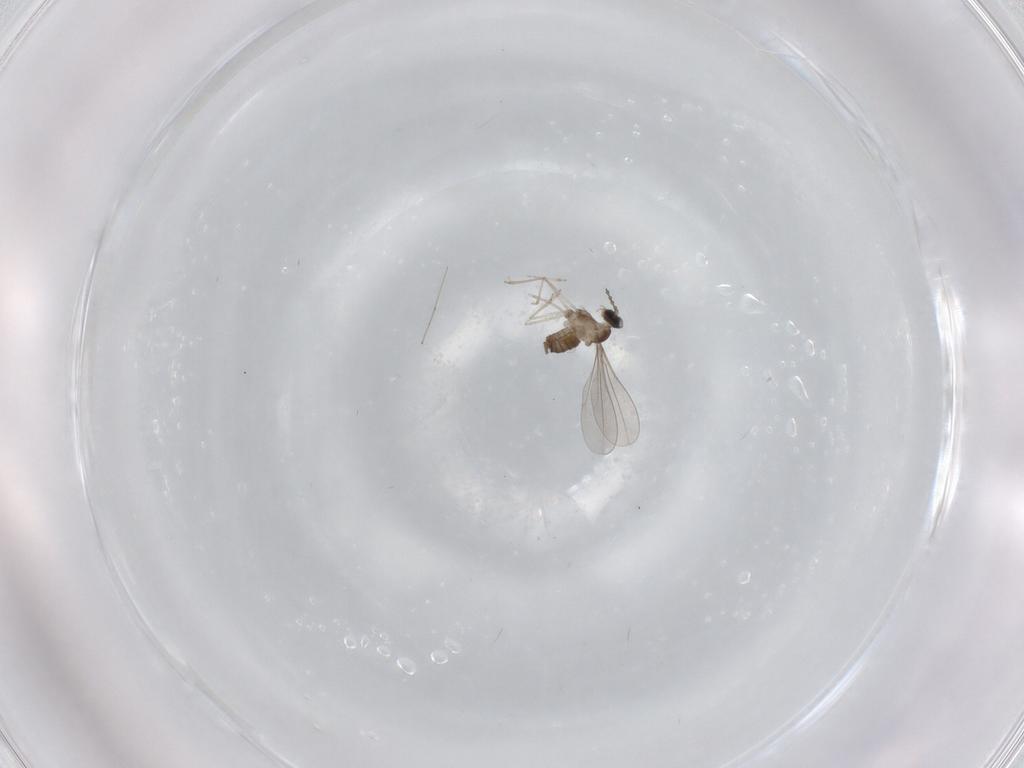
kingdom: Animalia
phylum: Arthropoda
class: Insecta
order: Diptera
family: Cecidomyiidae
